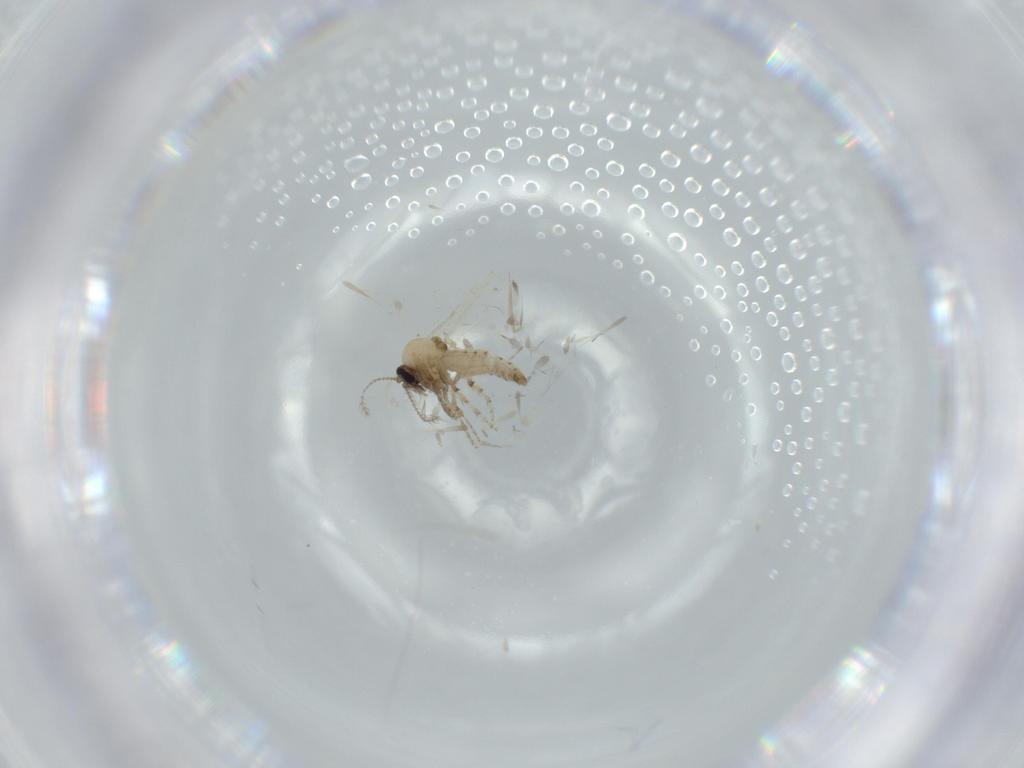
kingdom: Animalia
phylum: Arthropoda
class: Insecta
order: Diptera
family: Ceratopogonidae
